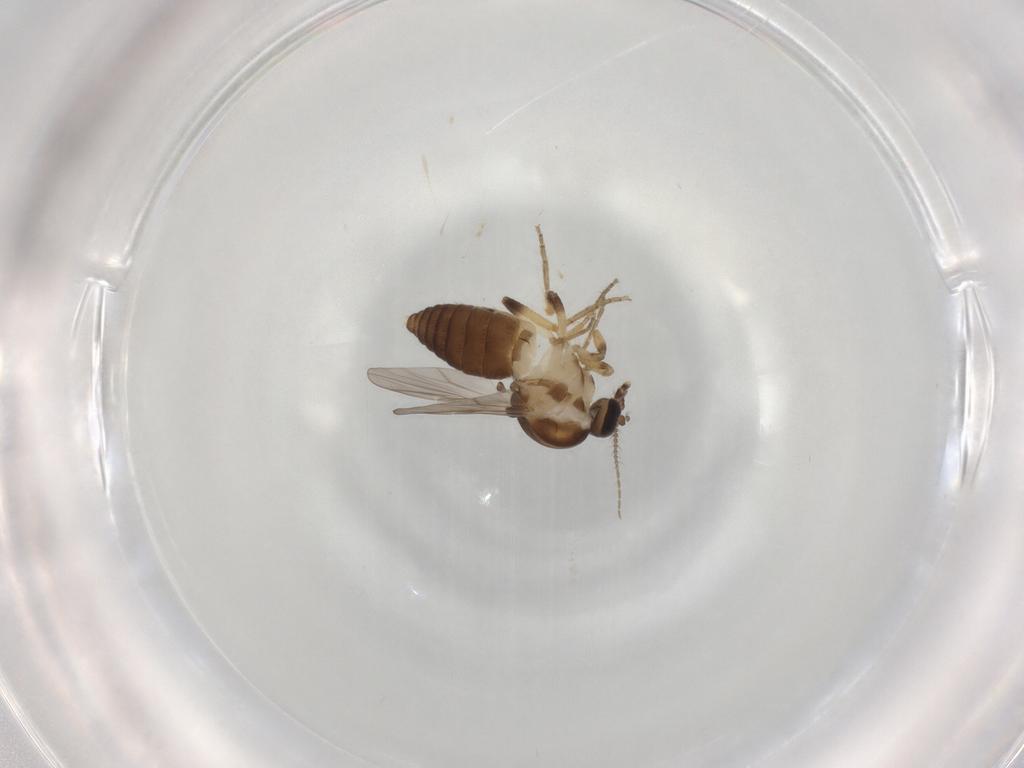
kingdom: Animalia
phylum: Arthropoda
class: Insecta
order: Diptera
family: Ceratopogonidae
